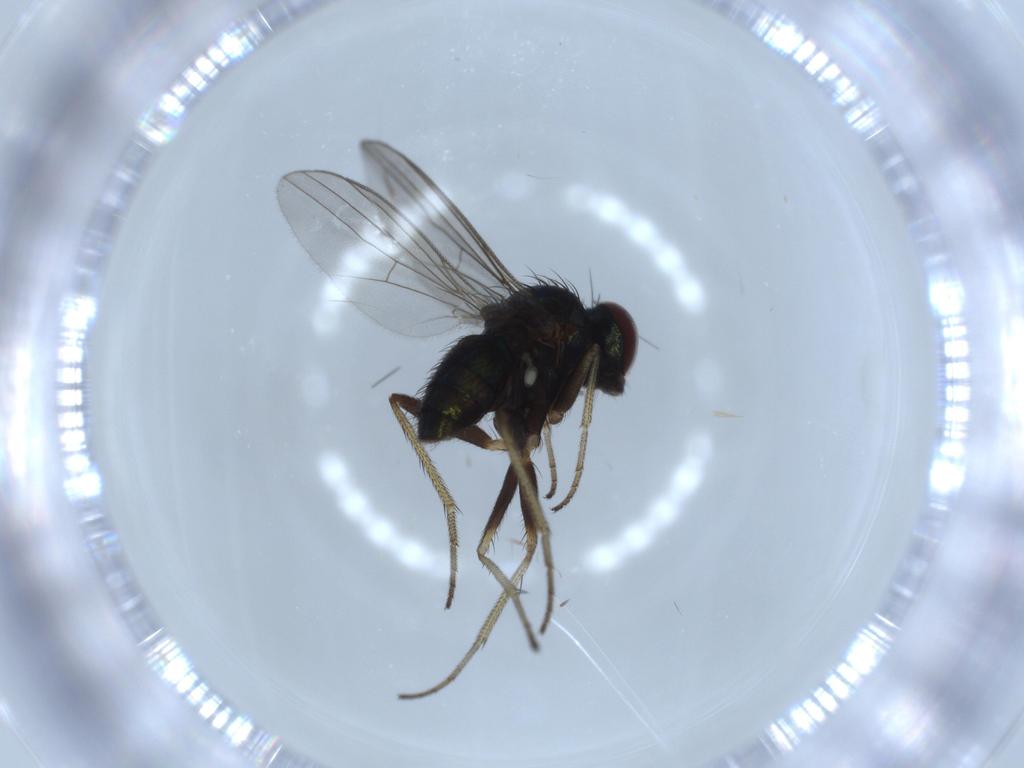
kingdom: Animalia
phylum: Arthropoda
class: Insecta
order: Diptera
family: Dolichopodidae
